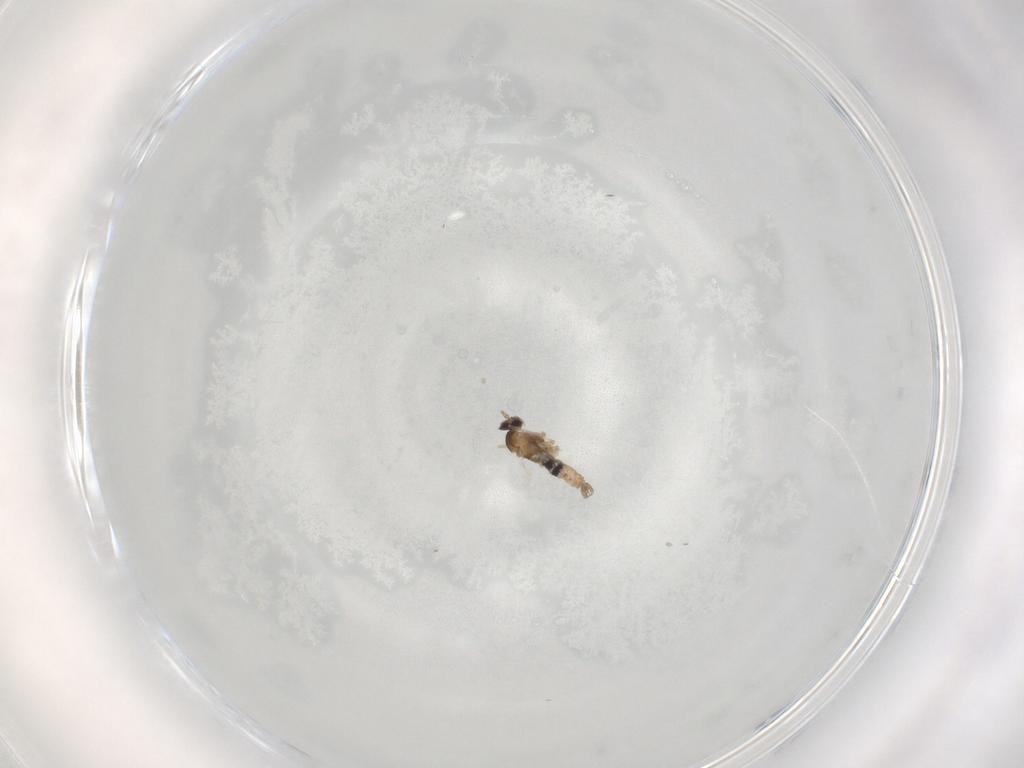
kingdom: Animalia
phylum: Arthropoda
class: Insecta
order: Diptera
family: Cecidomyiidae
